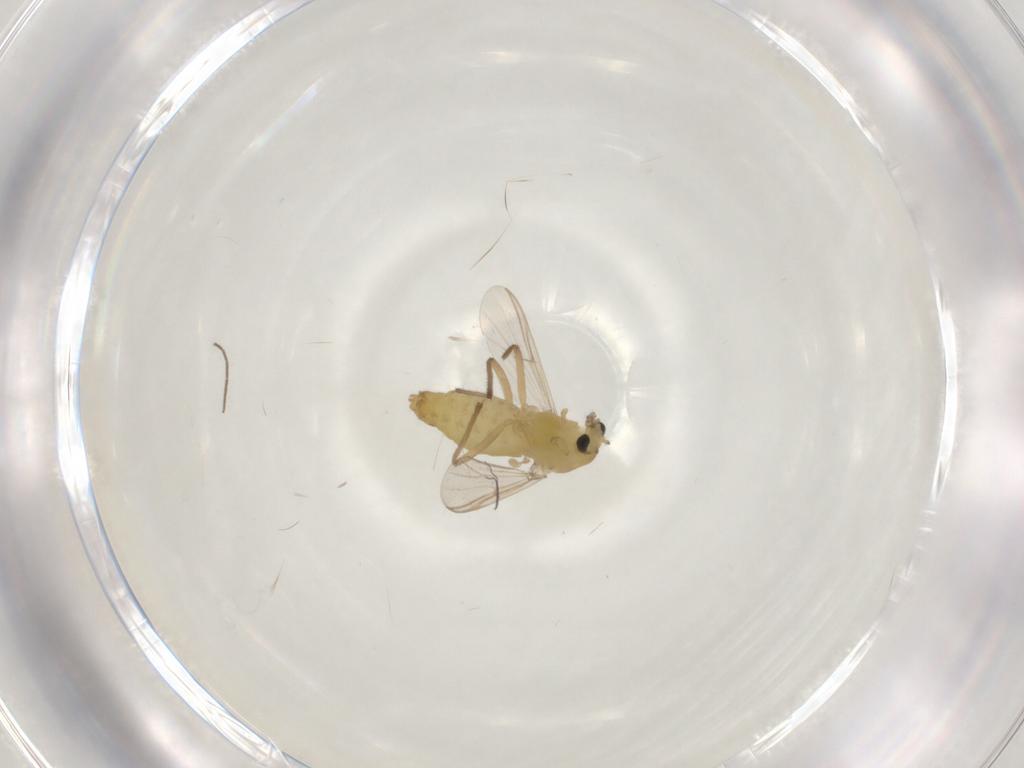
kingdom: Animalia
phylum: Arthropoda
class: Insecta
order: Diptera
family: Chironomidae
